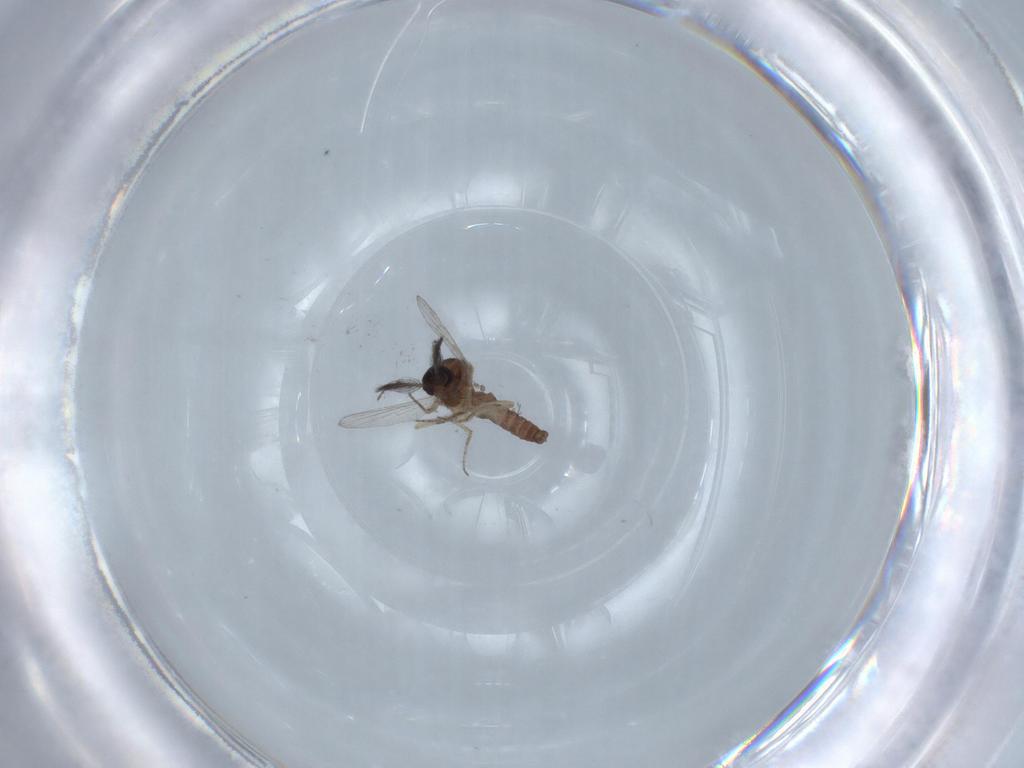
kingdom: Animalia
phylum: Arthropoda
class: Insecta
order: Diptera
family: Ceratopogonidae
